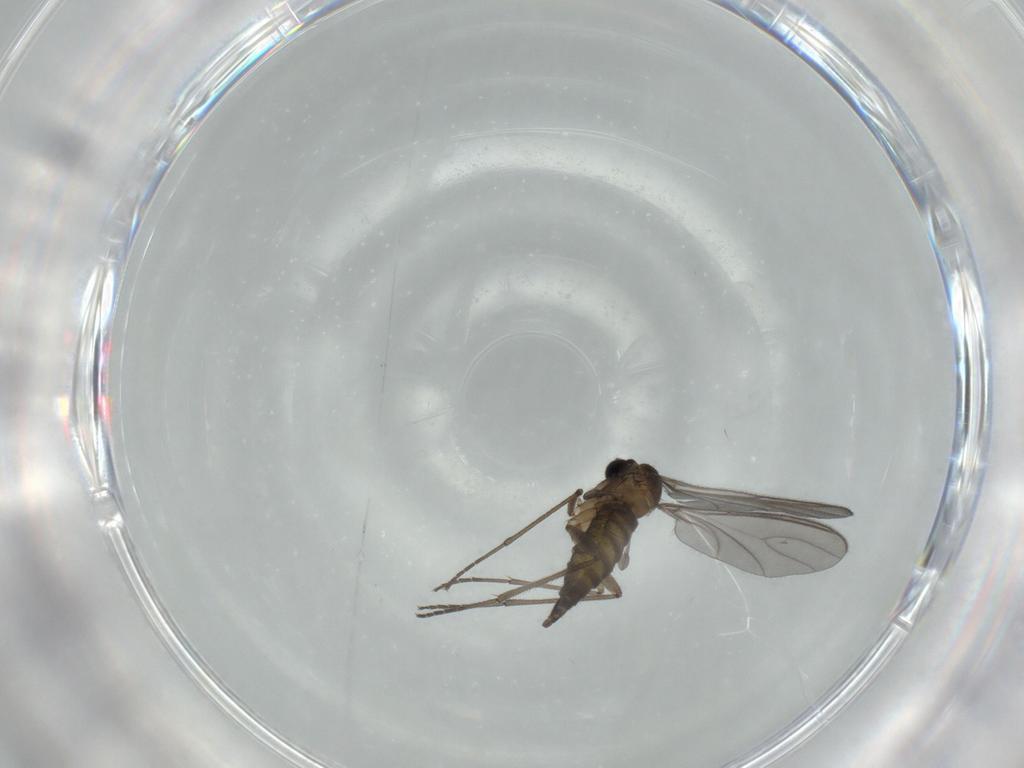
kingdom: Animalia
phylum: Arthropoda
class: Insecta
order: Diptera
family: Sciaridae
